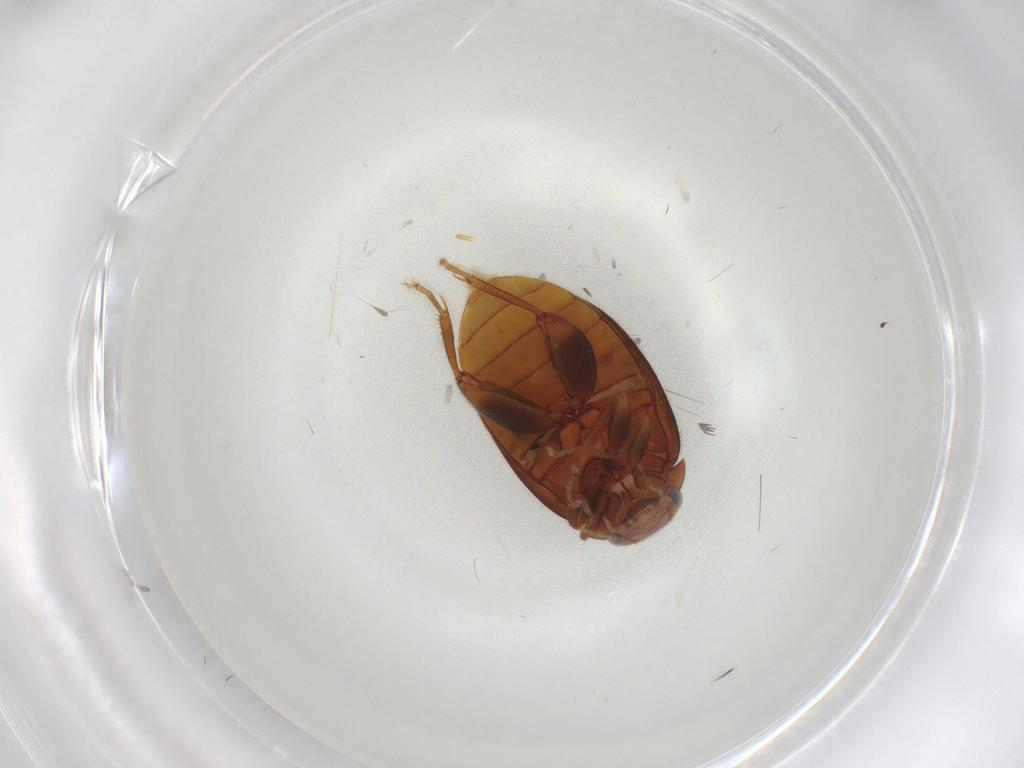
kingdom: Animalia
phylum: Arthropoda
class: Insecta
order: Coleoptera
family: Scirtidae
